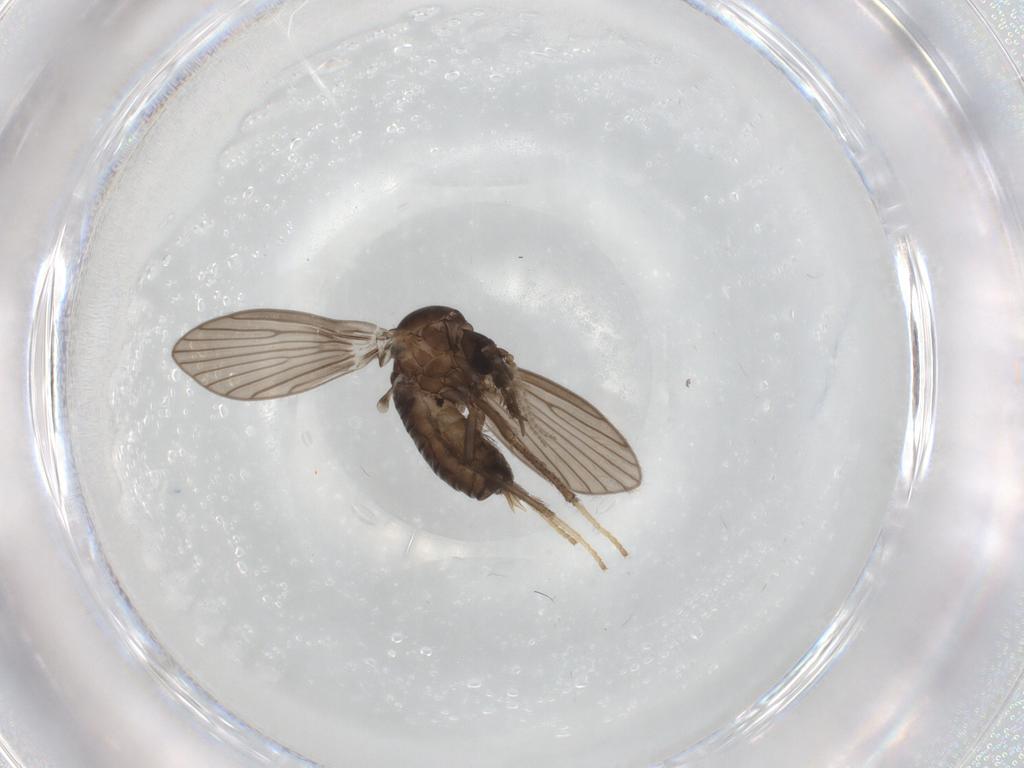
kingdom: Animalia
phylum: Arthropoda
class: Insecta
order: Diptera
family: Psychodidae
